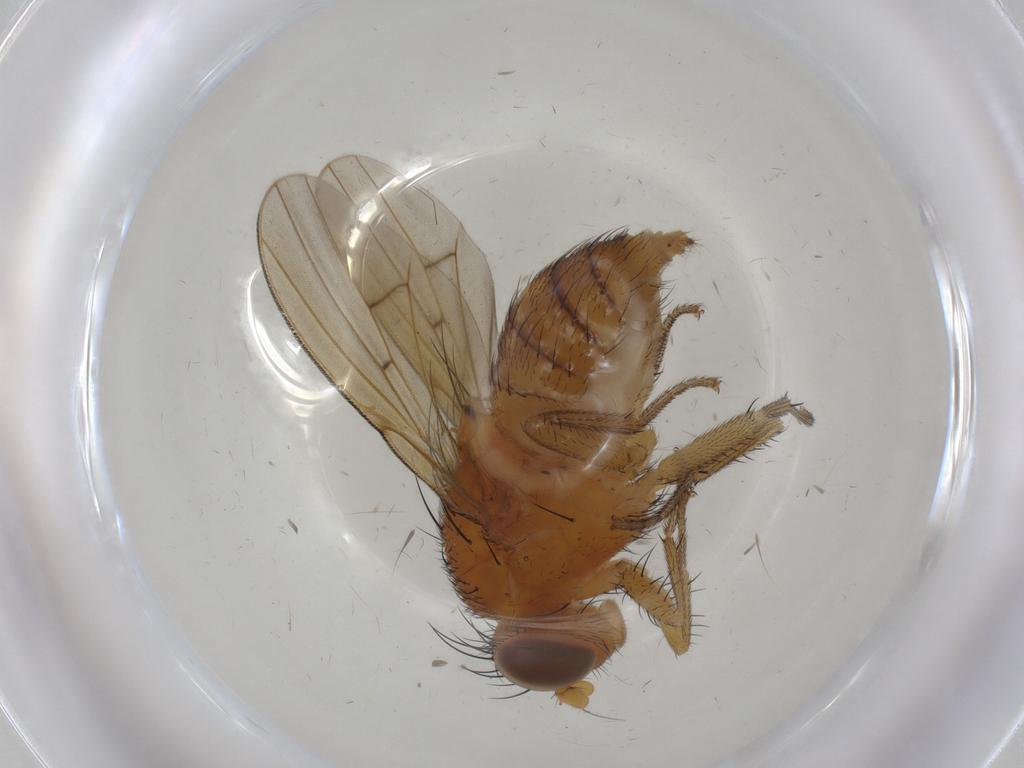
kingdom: Animalia
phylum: Arthropoda
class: Insecta
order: Diptera
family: Cecidomyiidae
